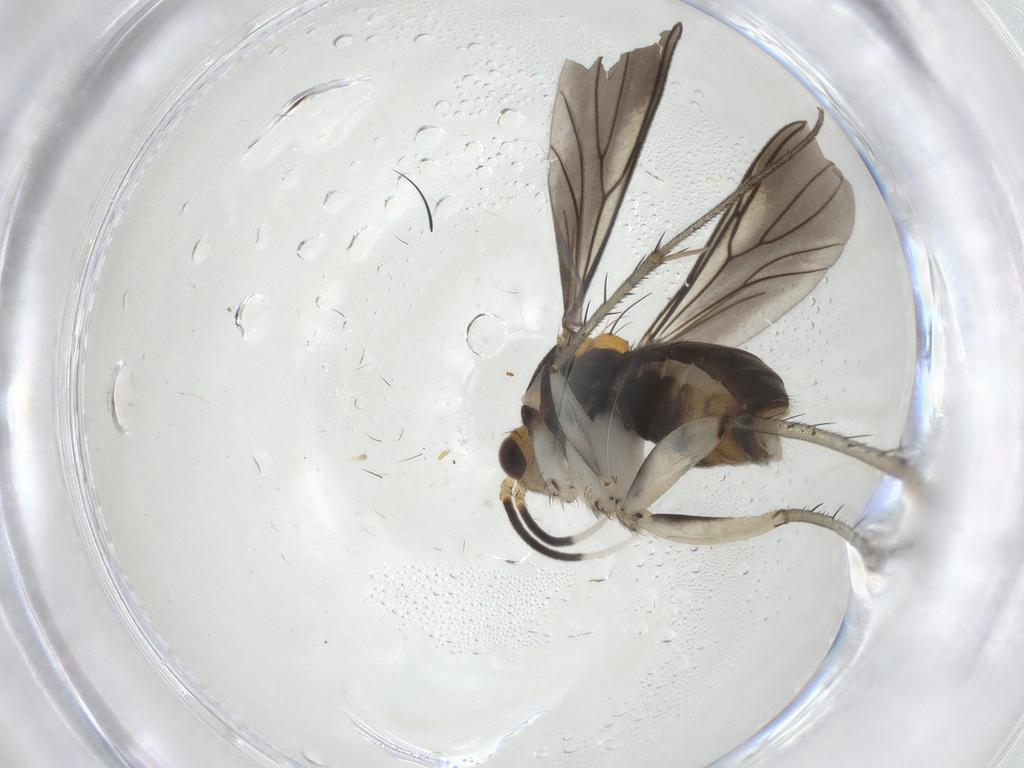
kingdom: Animalia
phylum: Arthropoda
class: Insecta
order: Diptera
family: Mycetophilidae
